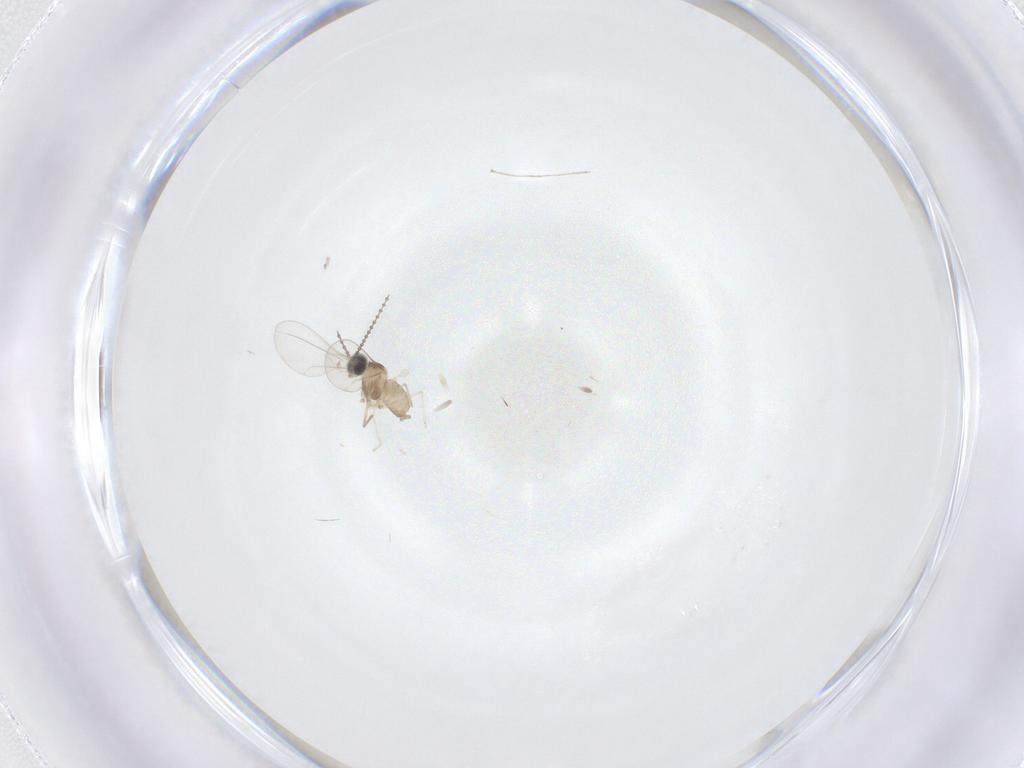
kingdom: Animalia
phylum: Arthropoda
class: Insecta
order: Diptera
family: Cecidomyiidae
